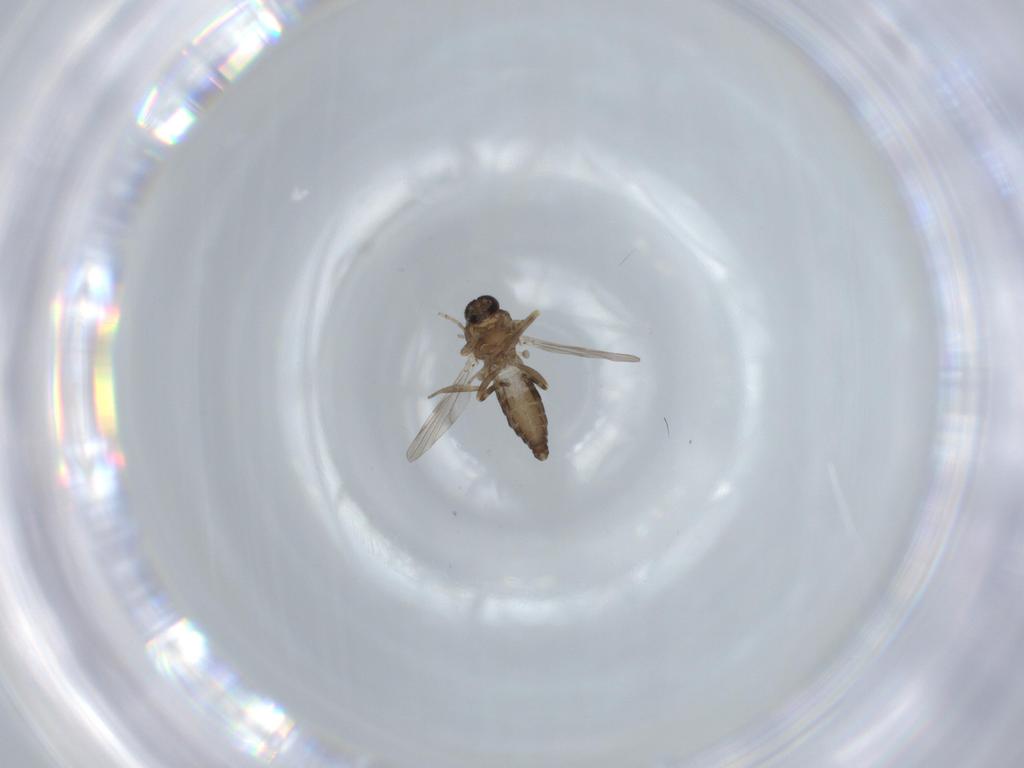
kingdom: Animalia
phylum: Arthropoda
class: Insecta
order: Diptera
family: Ceratopogonidae
